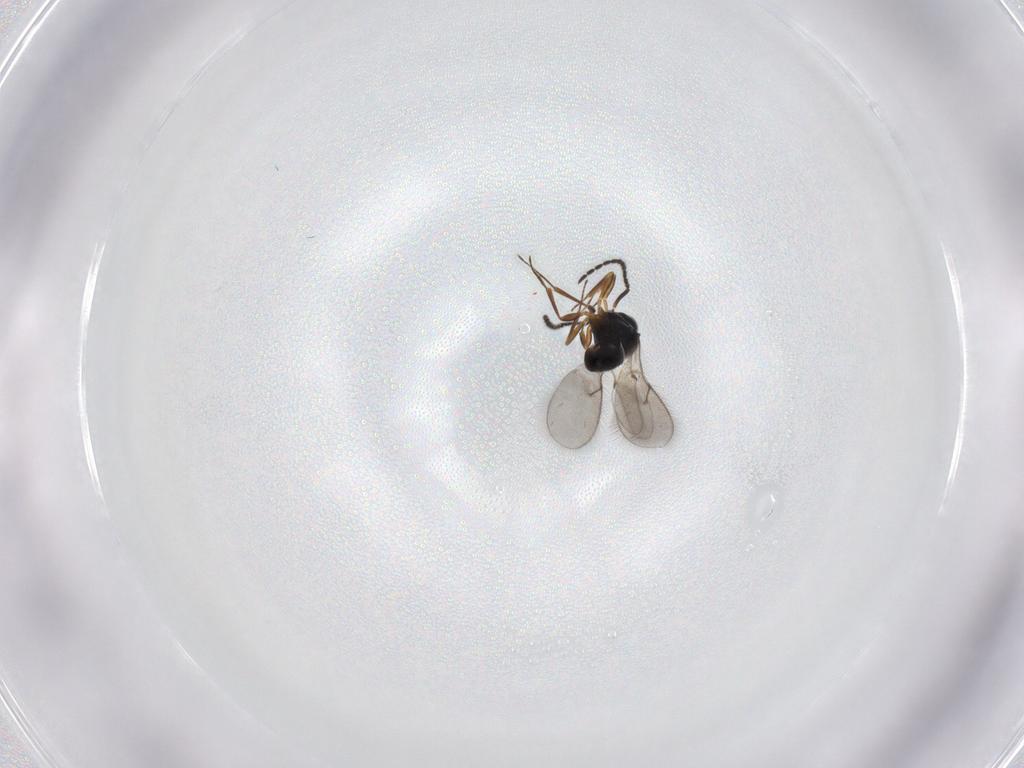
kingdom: Animalia
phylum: Arthropoda
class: Insecta
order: Hymenoptera
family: Scelionidae
